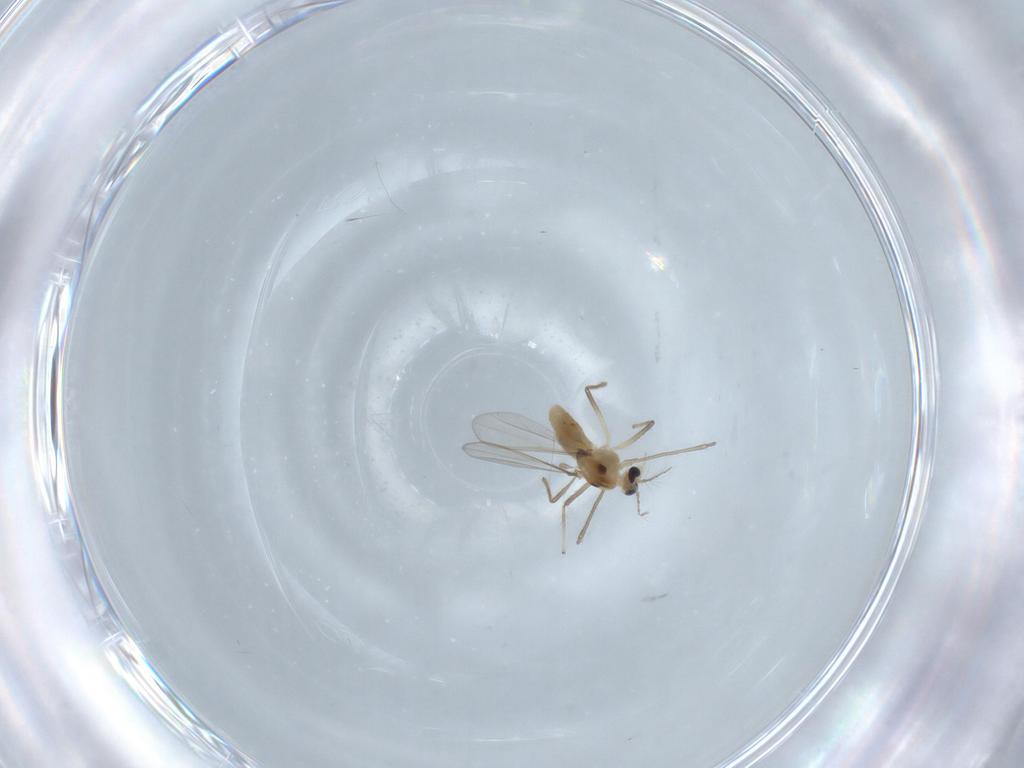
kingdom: Animalia
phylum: Arthropoda
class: Insecta
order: Diptera
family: Chironomidae
